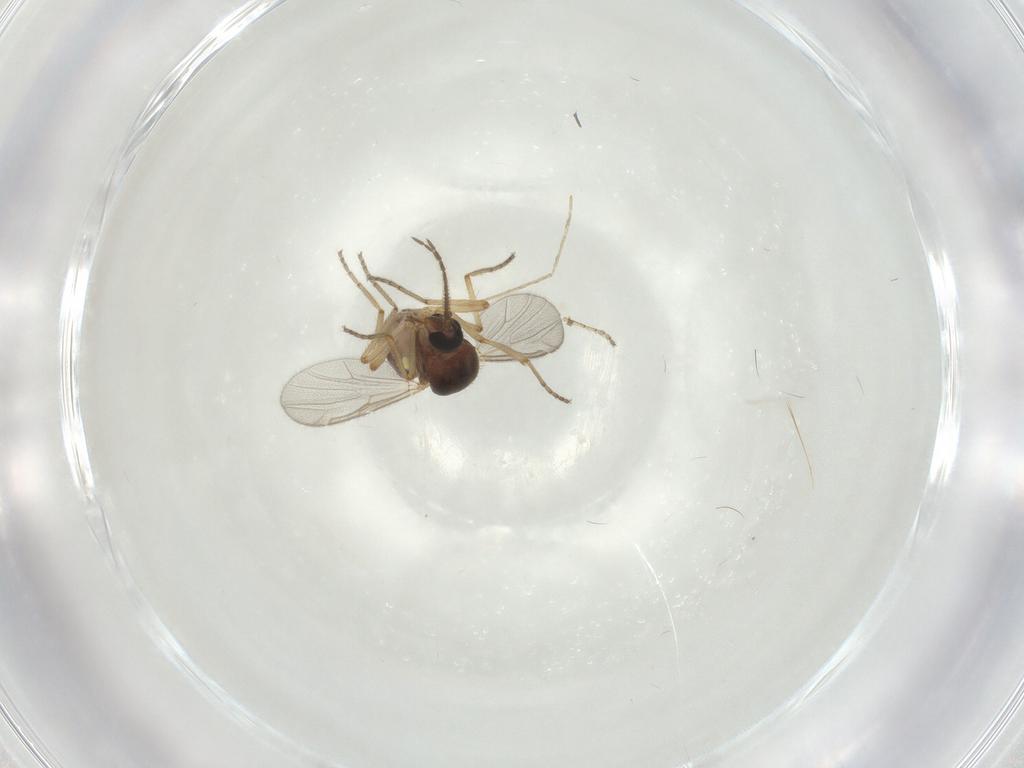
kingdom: Animalia
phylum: Arthropoda
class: Insecta
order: Diptera
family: Ceratopogonidae
